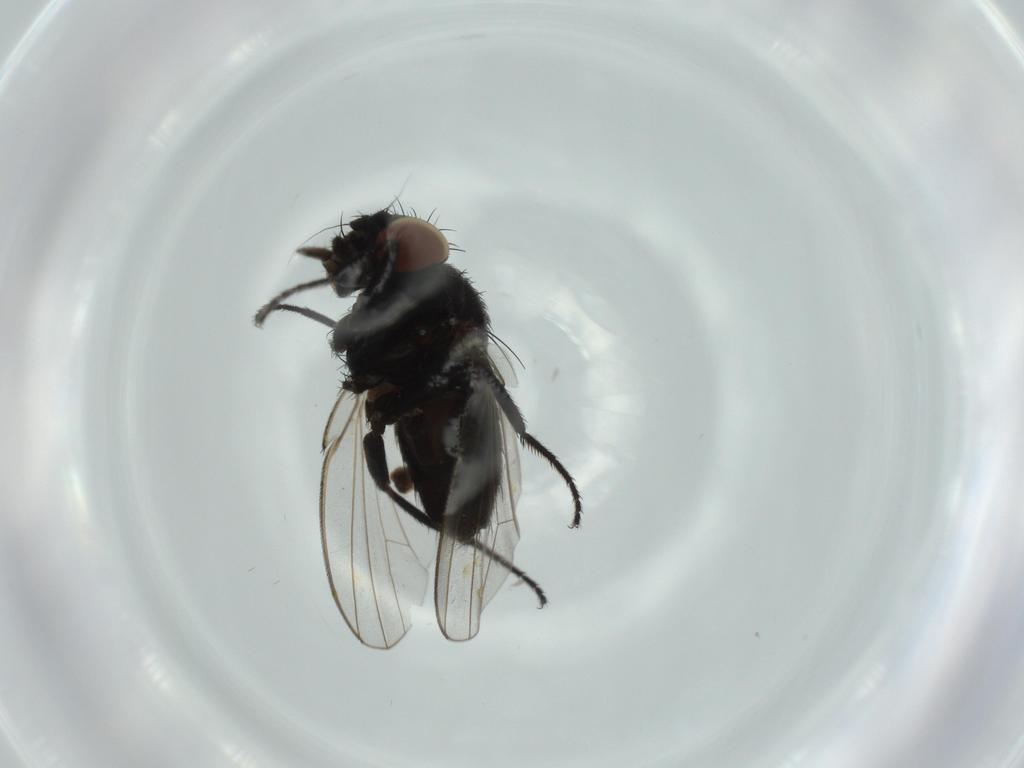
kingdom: Animalia
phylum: Arthropoda
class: Insecta
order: Diptera
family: Milichiidae
